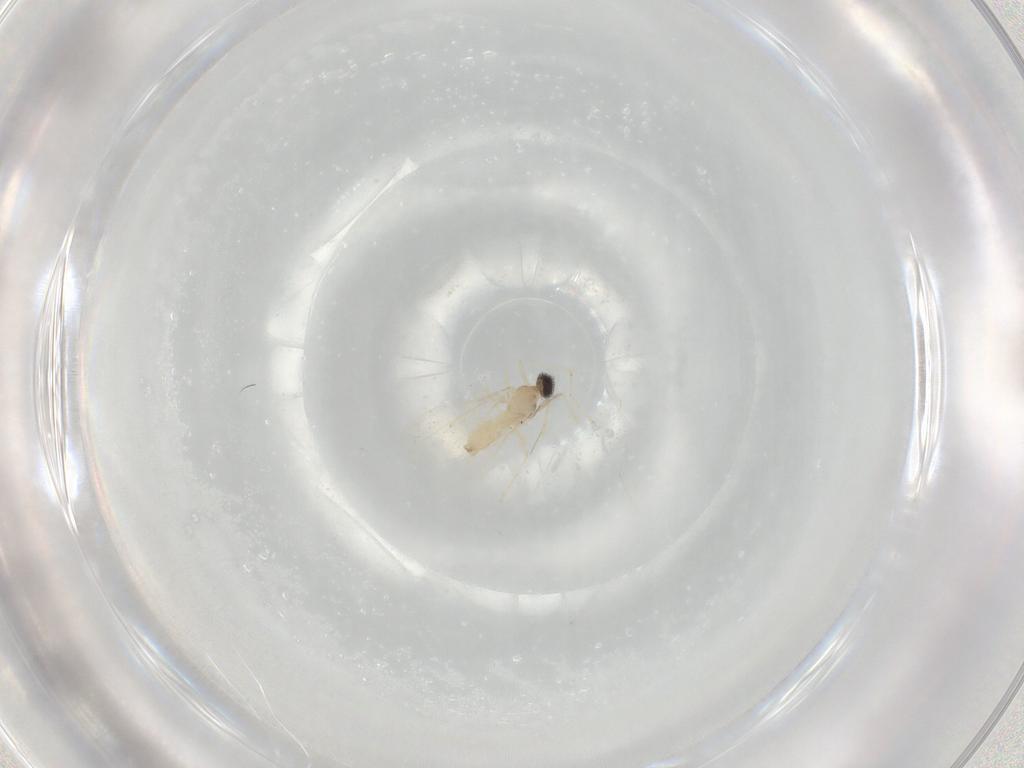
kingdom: Animalia
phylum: Arthropoda
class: Insecta
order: Diptera
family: Cecidomyiidae
